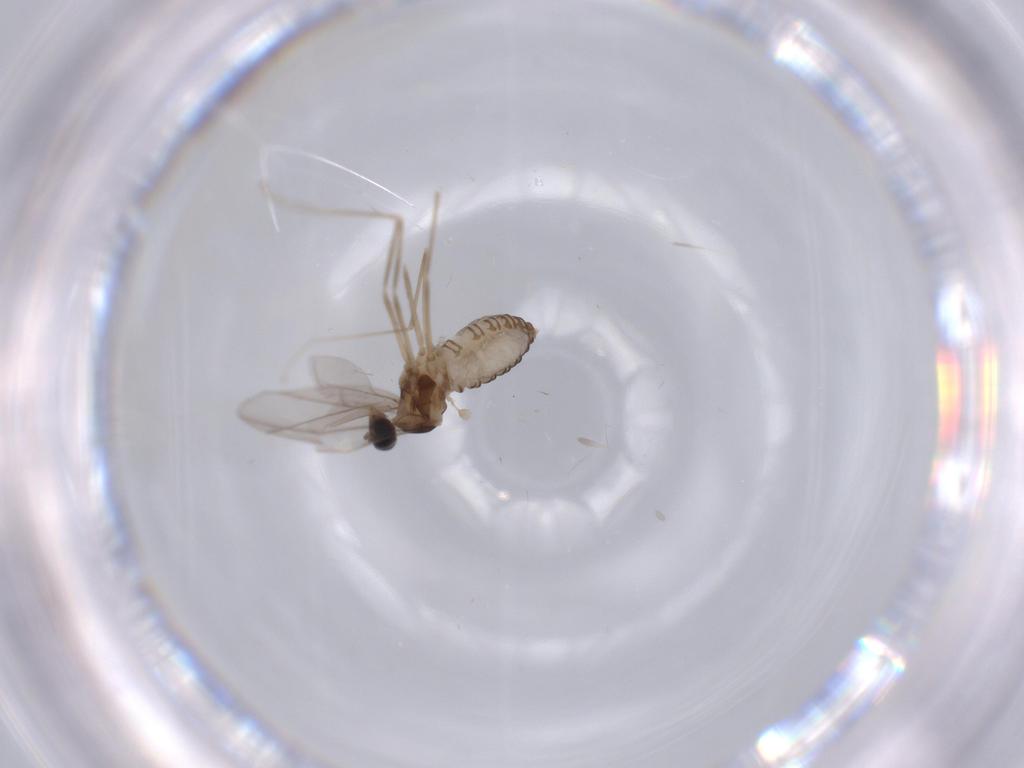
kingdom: Animalia
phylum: Arthropoda
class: Insecta
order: Diptera
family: Cecidomyiidae
